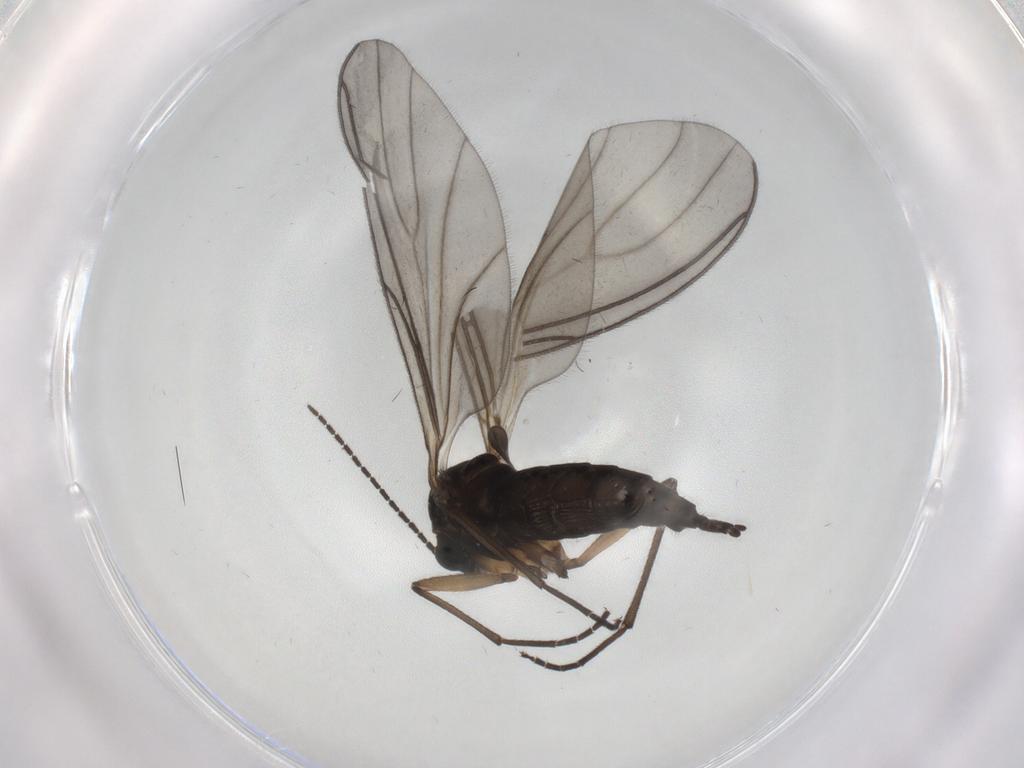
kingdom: Animalia
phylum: Arthropoda
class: Insecta
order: Diptera
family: Sciaridae
